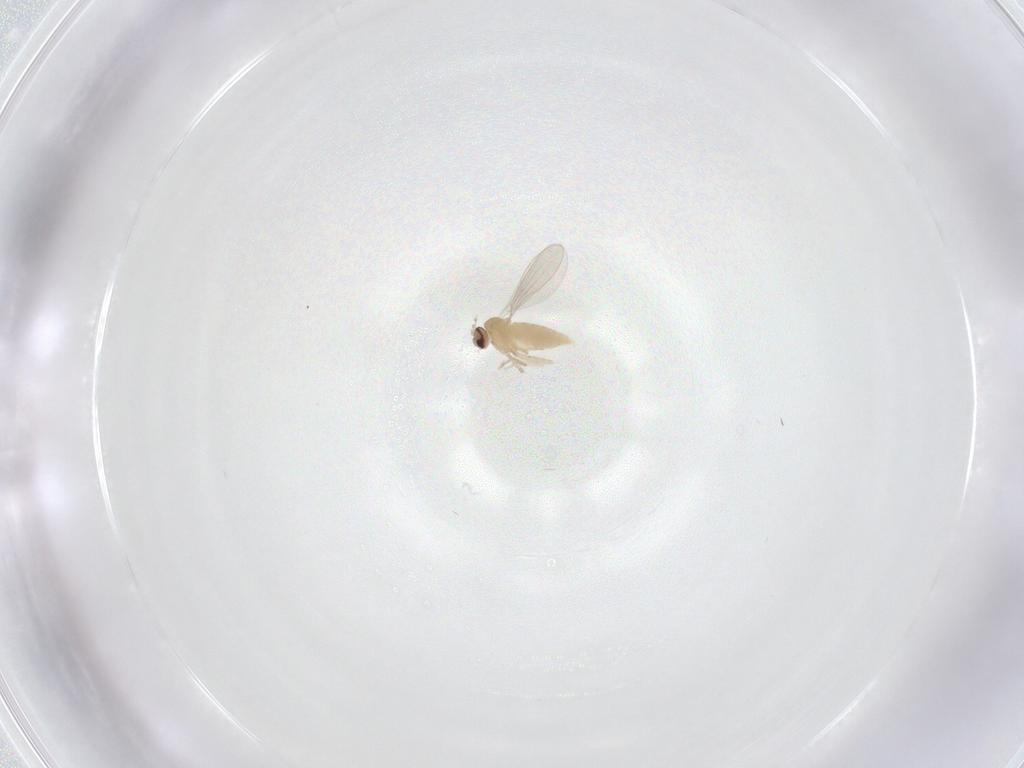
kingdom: Animalia
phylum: Arthropoda
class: Insecta
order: Diptera
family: Cecidomyiidae
